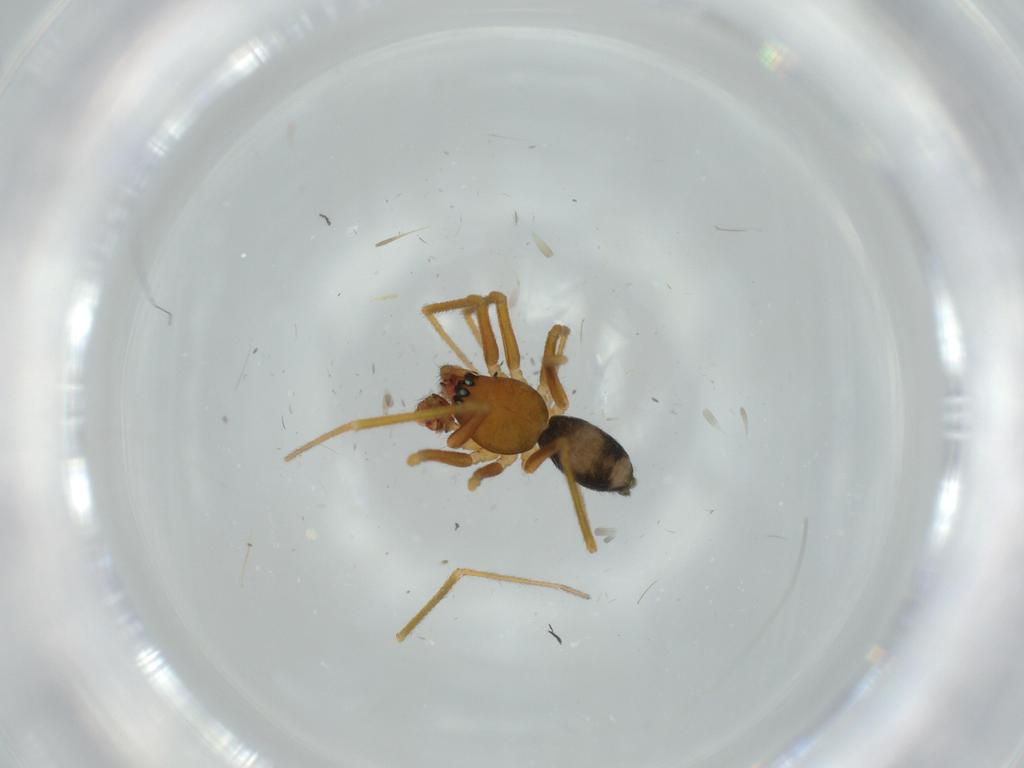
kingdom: Animalia
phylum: Arthropoda
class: Arachnida
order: Araneae
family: Linyphiidae
